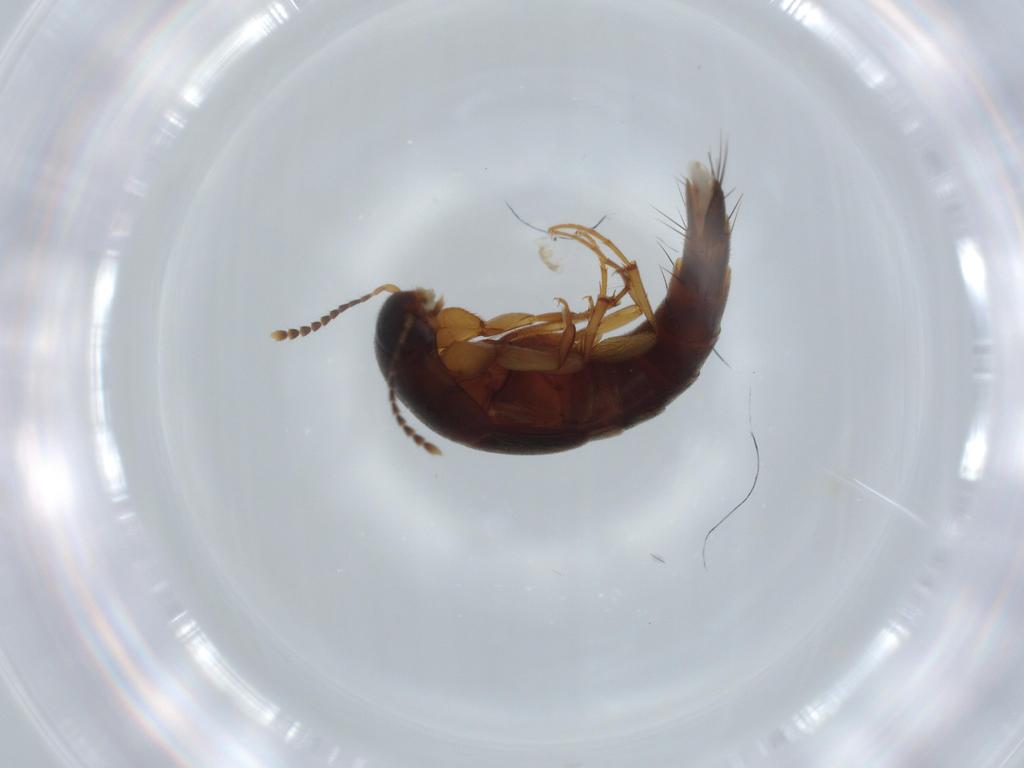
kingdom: Animalia
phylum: Arthropoda
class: Insecta
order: Coleoptera
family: Staphylinidae
